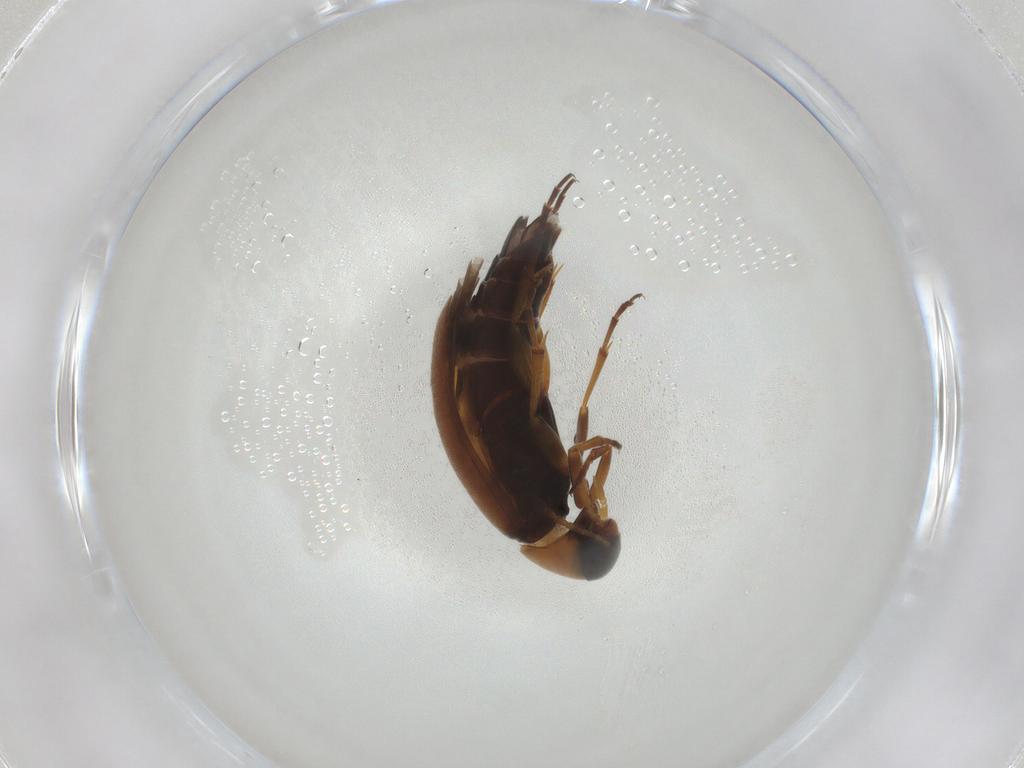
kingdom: Animalia
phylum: Arthropoda
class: Insecta
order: Coleoptera
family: Scraptiidae
